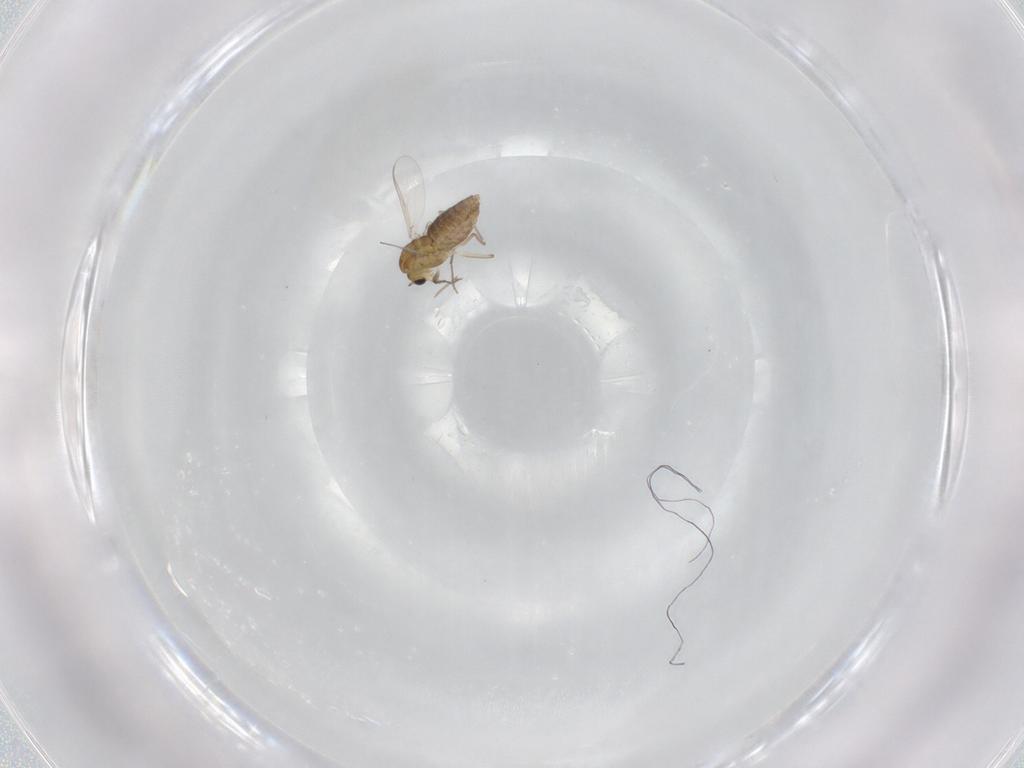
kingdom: Animalia
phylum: Arthropoda
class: Insecta
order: Diptera
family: Chironomidae
